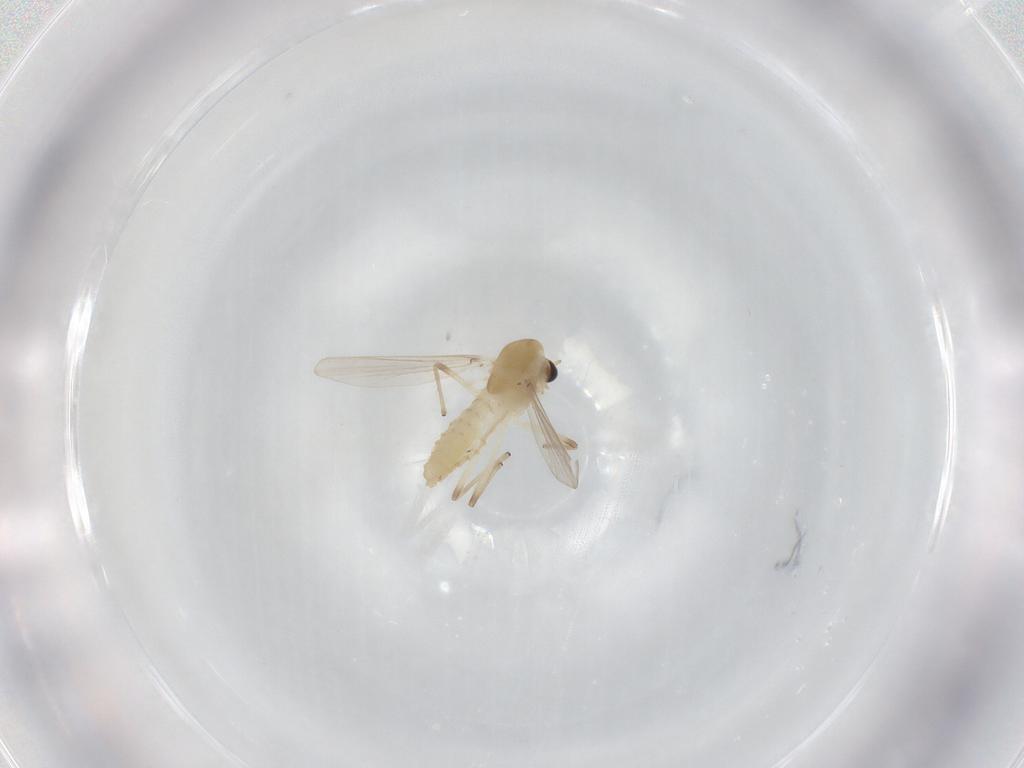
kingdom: Animalia
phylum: Arthropoda
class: Insecta
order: Diptera
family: Chironomidae
